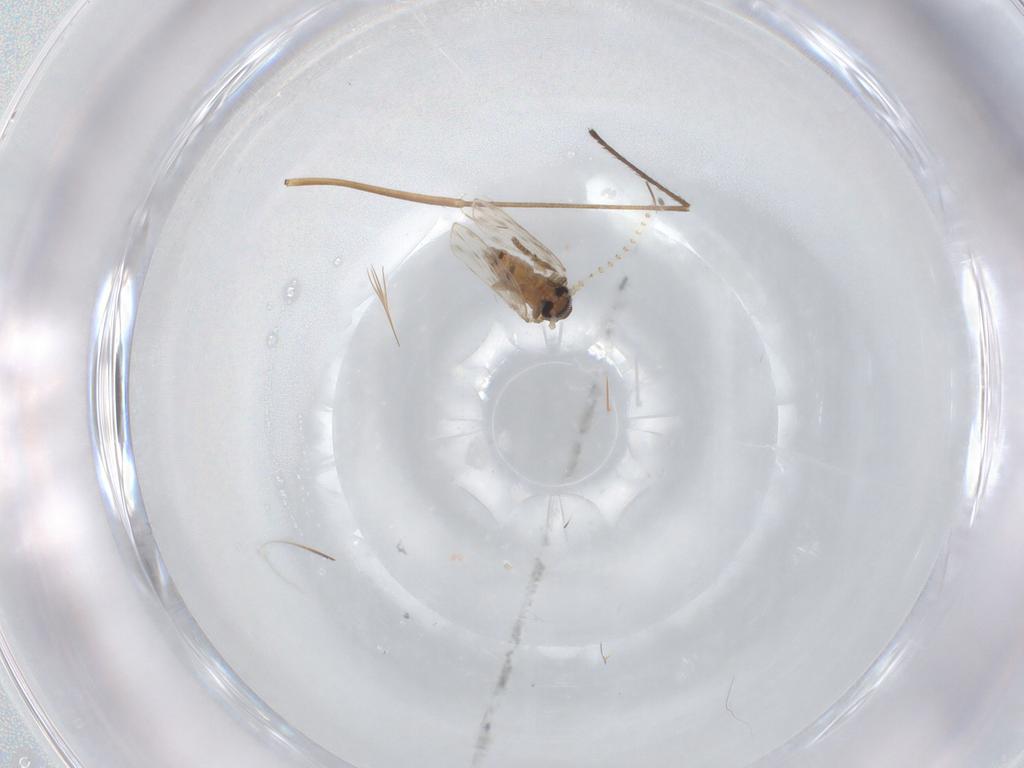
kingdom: Animalia
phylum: Arthropoda
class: Insecta
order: Diptera
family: Limoniidae
